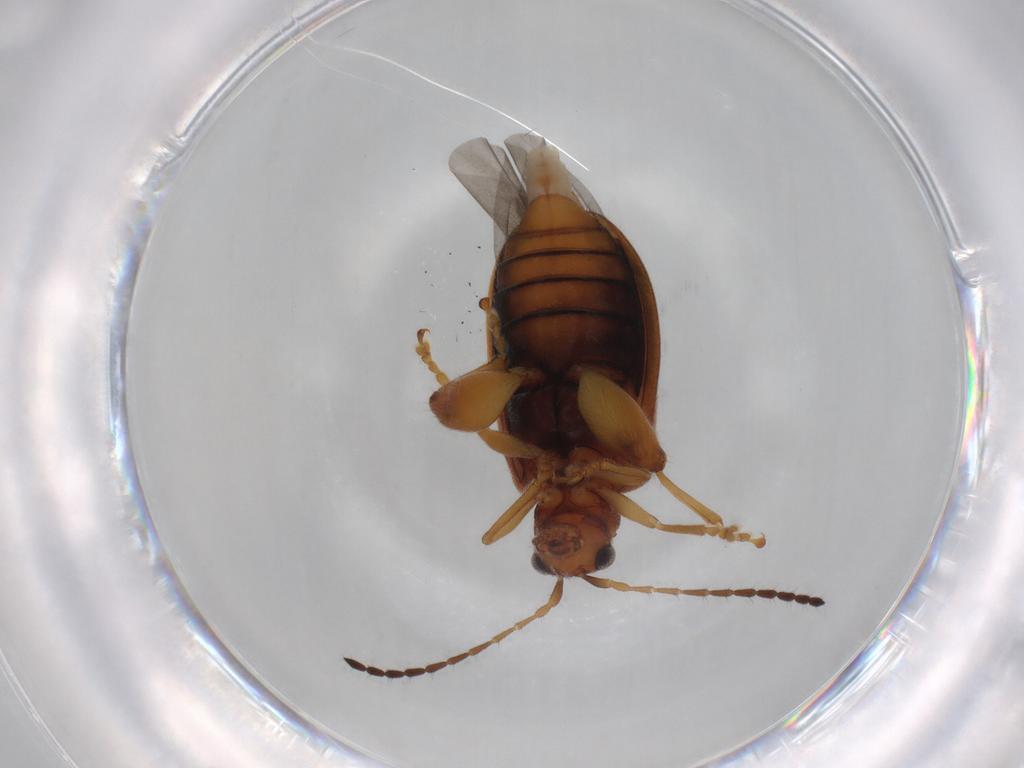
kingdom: Animalia
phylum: Arthropoda
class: Insecta
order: Coleoptera
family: Chrysomelidae
